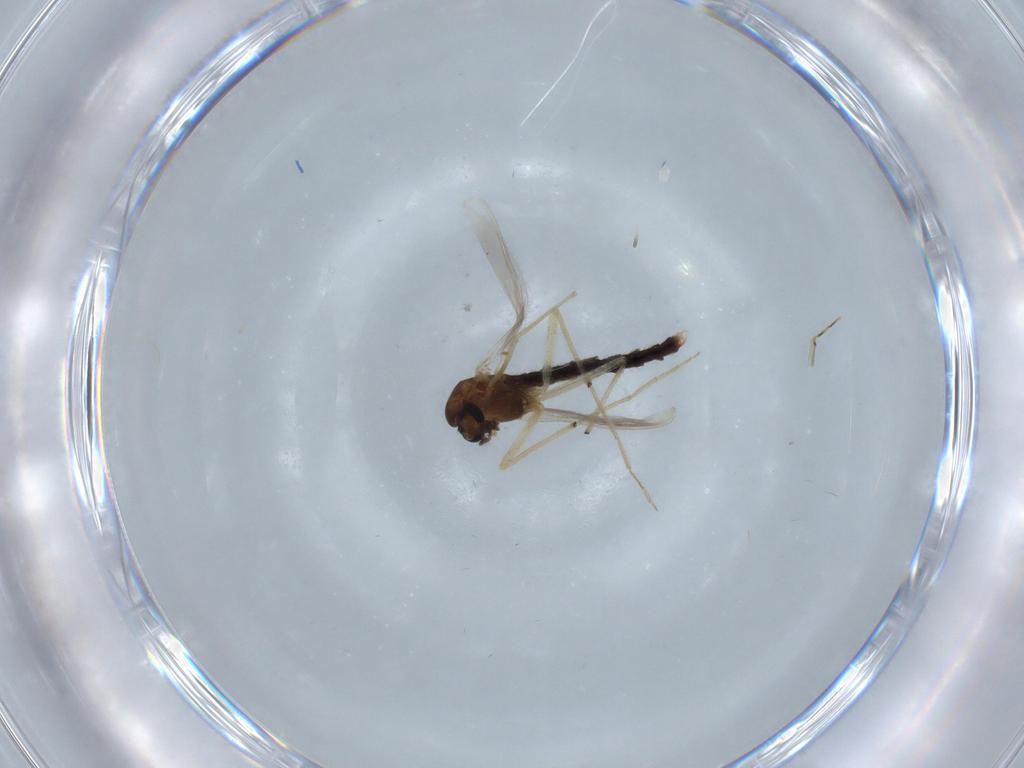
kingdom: Animalia
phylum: Arthropoda
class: Insecta
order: Diptera
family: Chironomidae
